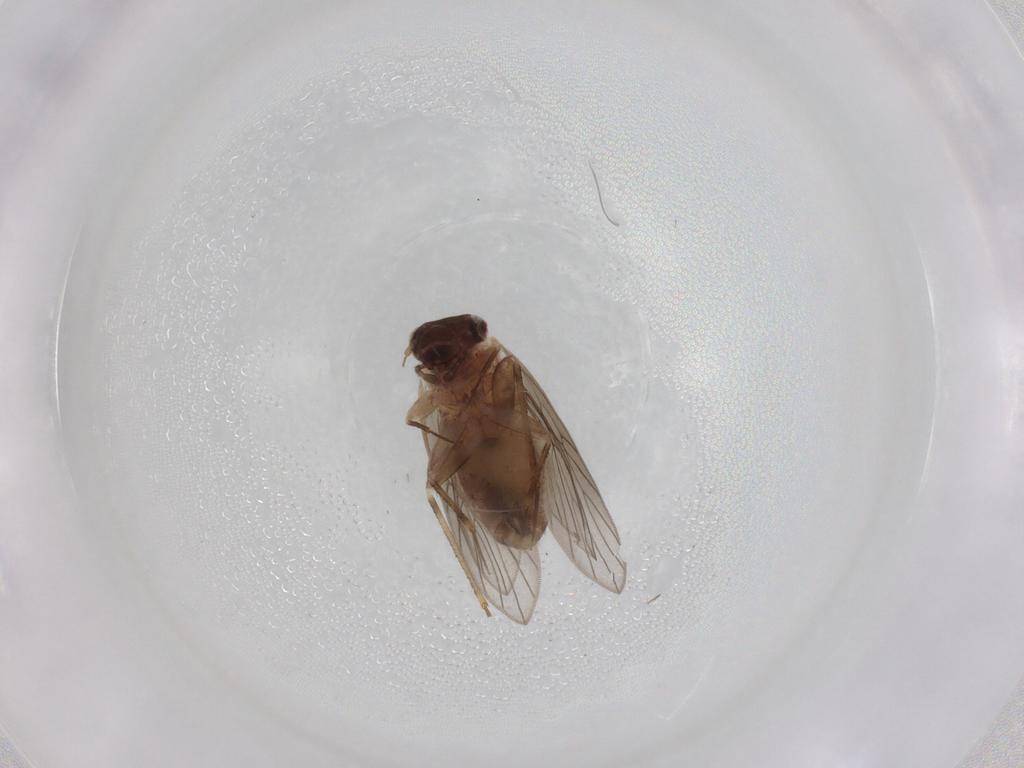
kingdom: Animalia
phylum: Arthropoda
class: Insecta
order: Psocodea
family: Lepidopsocidae
